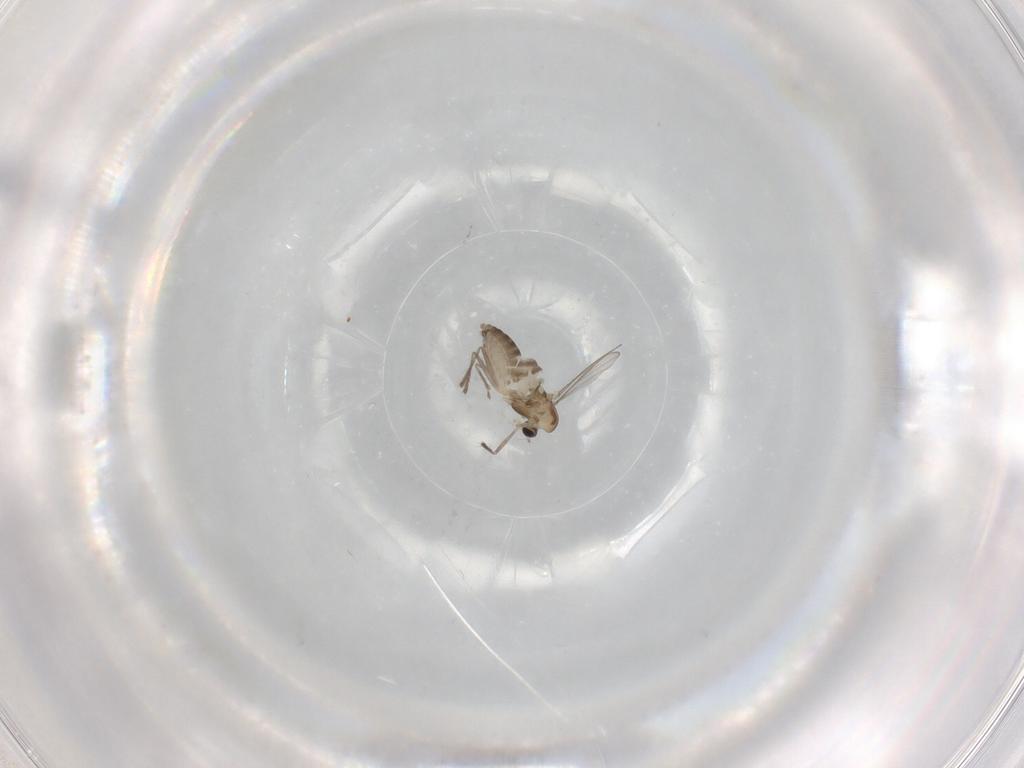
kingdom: Animalia
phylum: Arthropoda
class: Insecta
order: Diptera
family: Chironomidae
